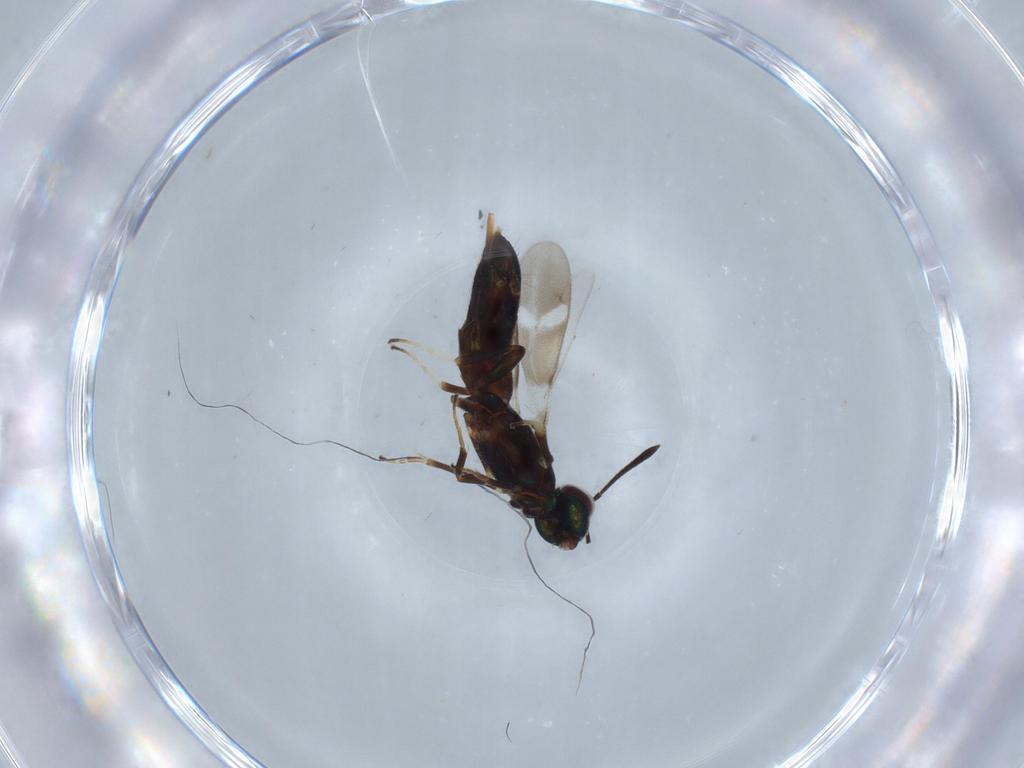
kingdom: Animalia
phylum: Arthropoda
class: Insecta
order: Hymenoptera
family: Eupelmidae
